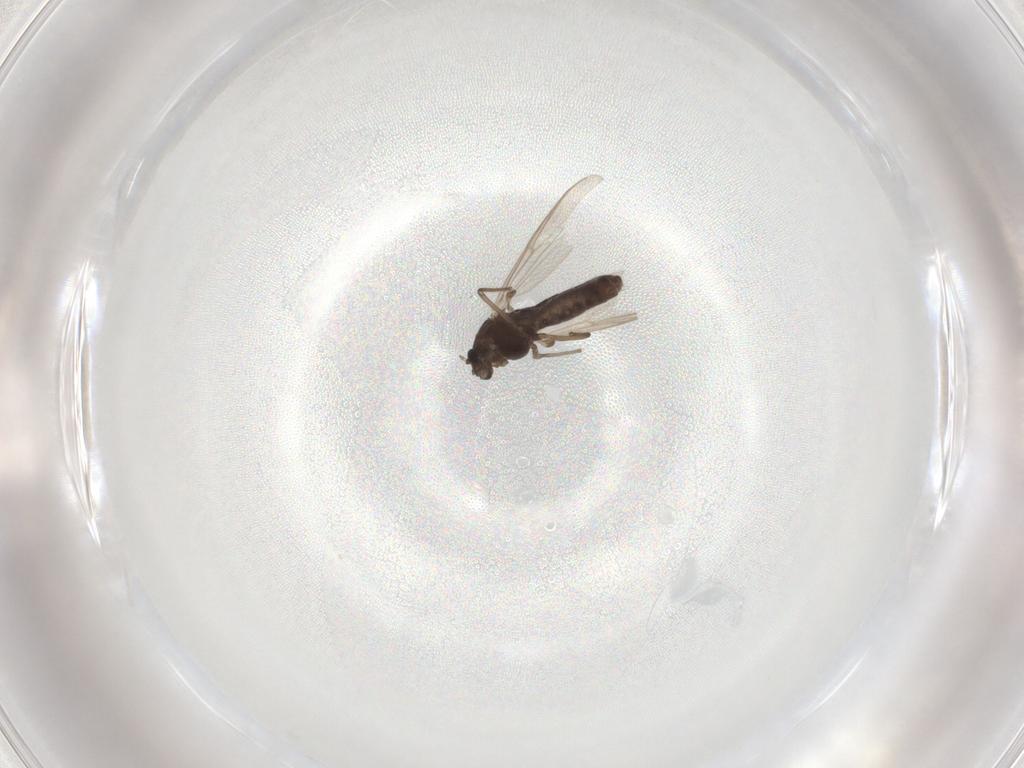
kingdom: Animalia
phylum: Arthropoda
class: Insecta
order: Diptera
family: Chironomidae
